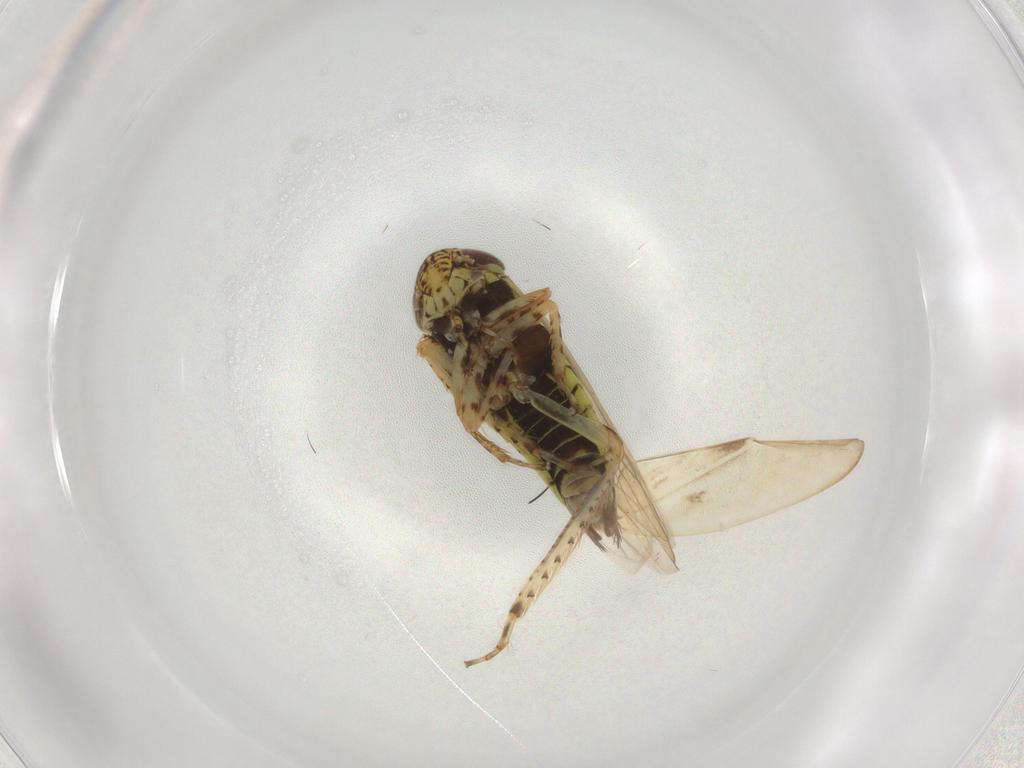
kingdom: Animalia
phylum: Arthropoda
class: Insecta
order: Hemiptera
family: Cicadellidae
